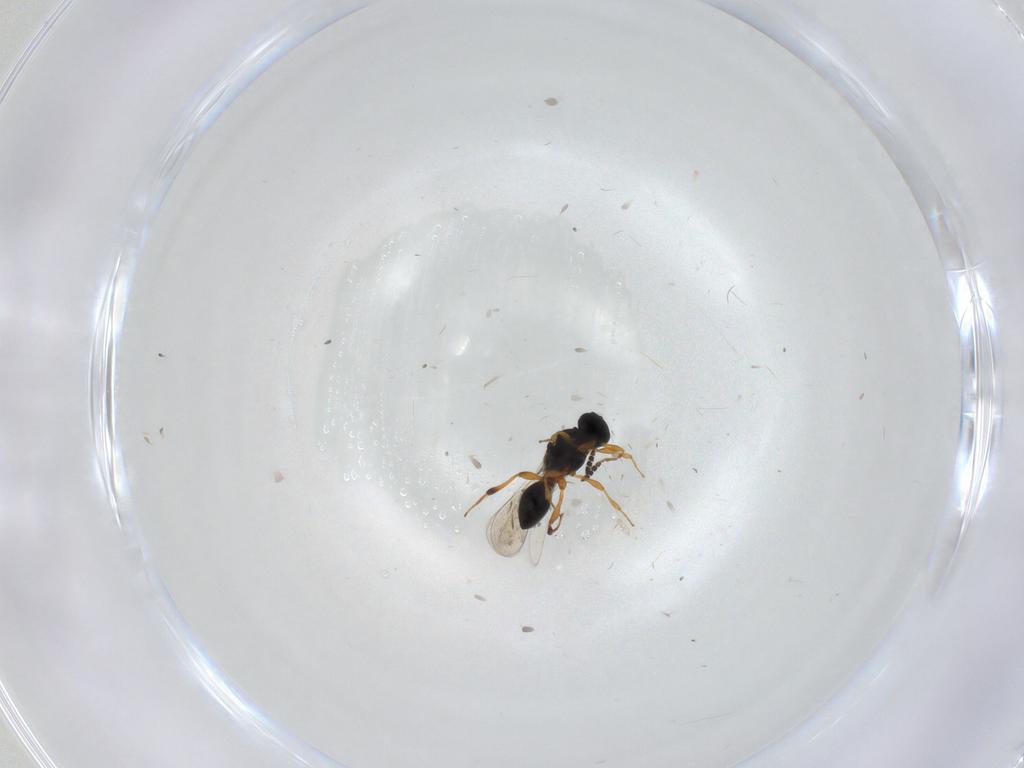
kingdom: Animalia
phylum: Arthropoda
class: Insecta
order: Hymenoptera
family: Platygastridae
